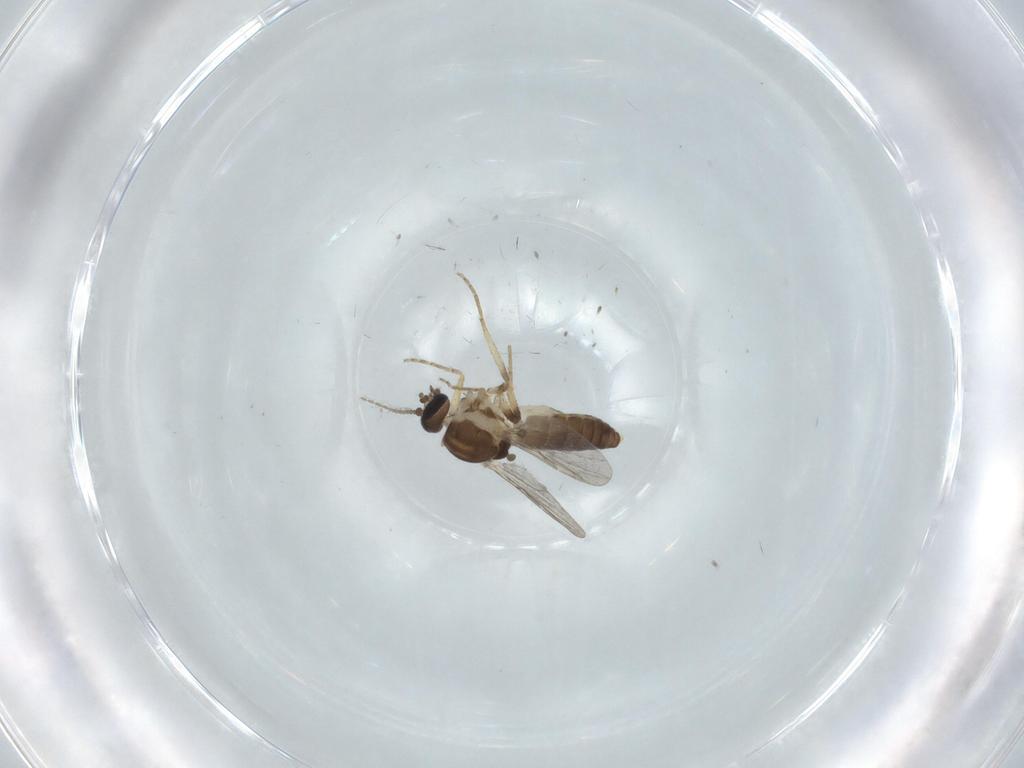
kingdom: Animalia
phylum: Arthropoda
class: Insecta
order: Diptera
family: Ceratopogonidae
